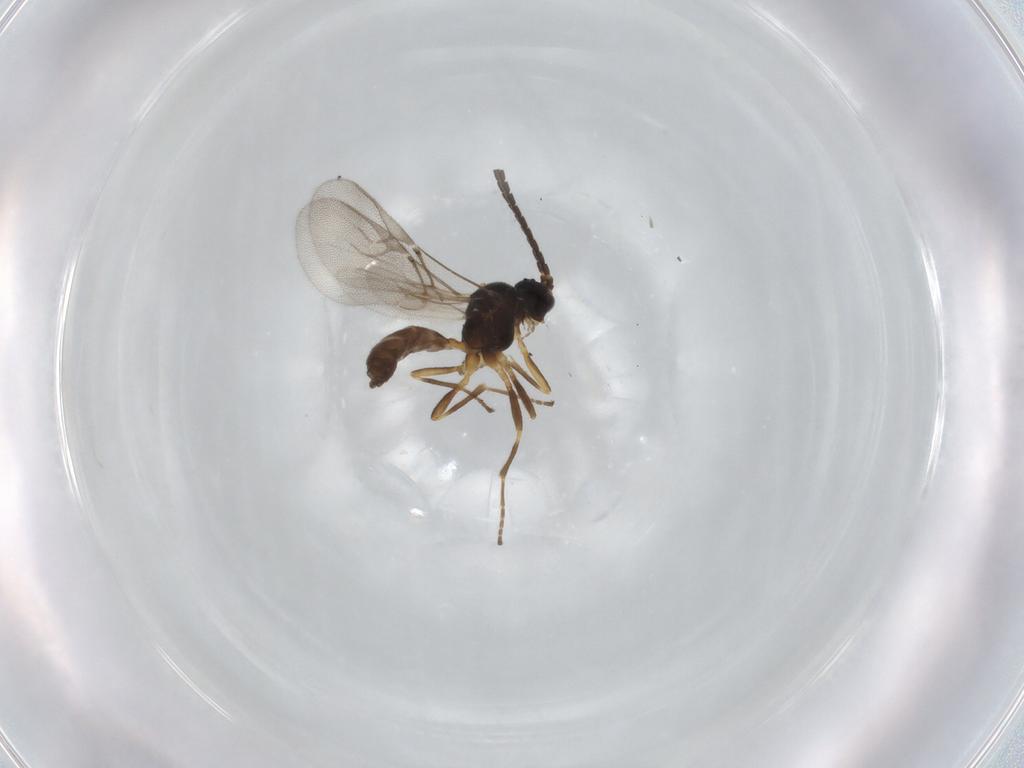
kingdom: Animalia
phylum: Arthropoda
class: Insecta
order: Hymenoptera
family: Braconidae
